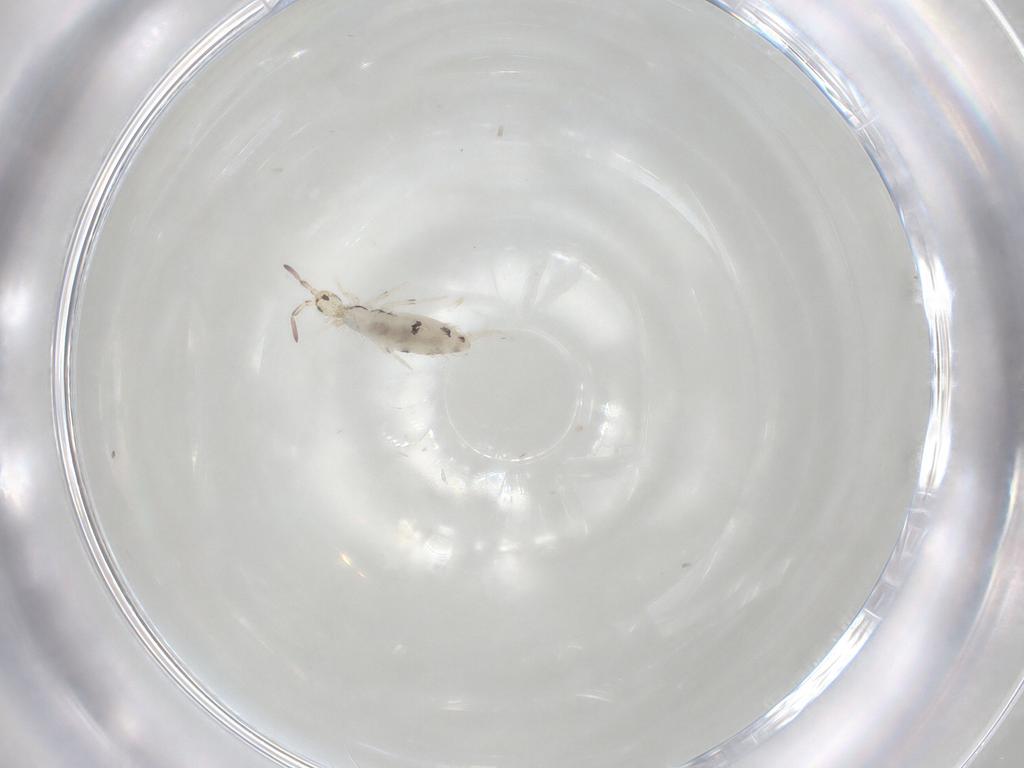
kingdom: Animalia
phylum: Arthropoda
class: Collembola
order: Entomobryomorpha
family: Entomobryidae
